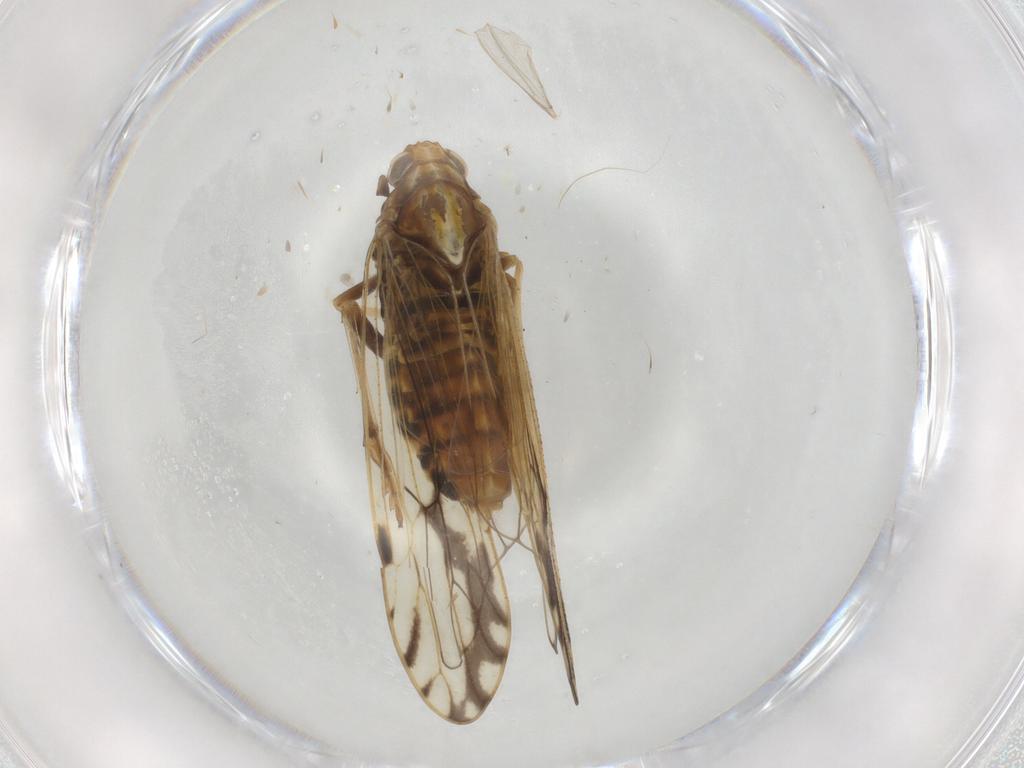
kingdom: Animalia
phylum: Arthropoda
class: Insecta
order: Hemiptera
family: Delphacidae
